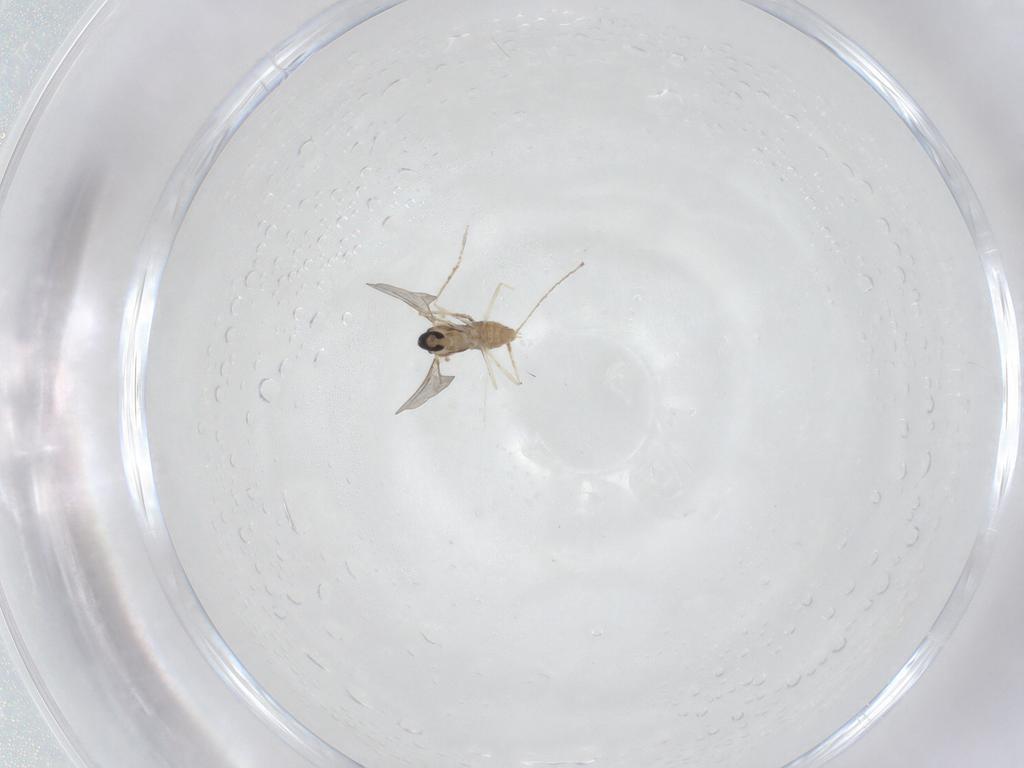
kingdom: Animalia
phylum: Arthropoda
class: Insecta
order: Diptera
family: Cecidomyiidae
